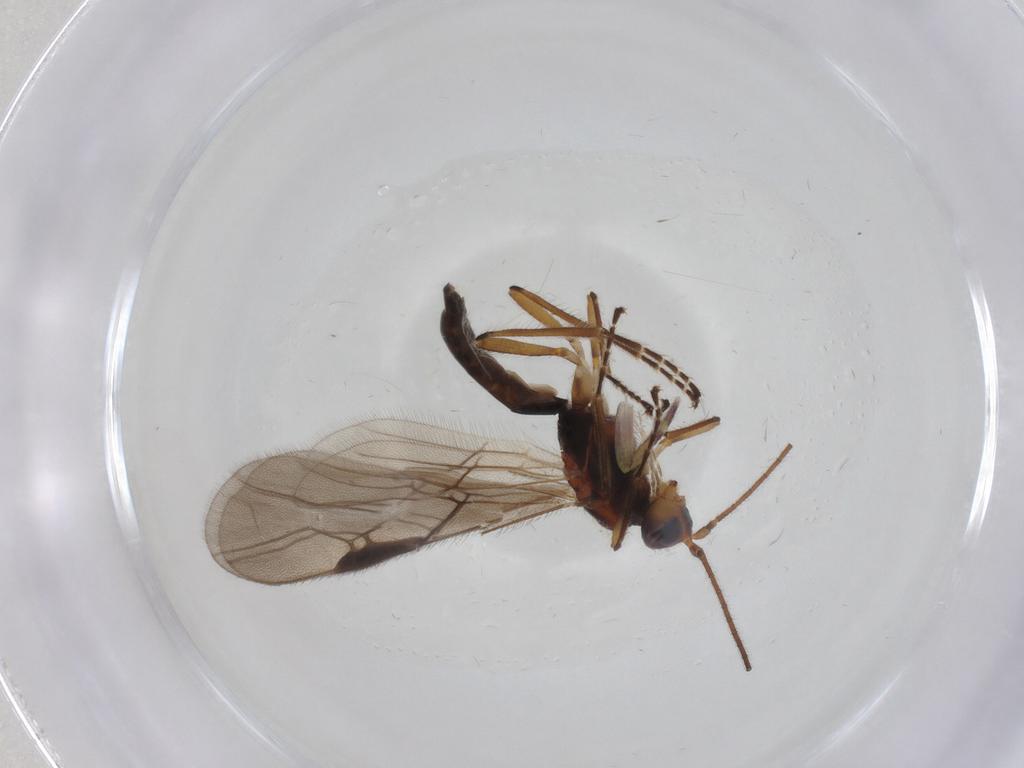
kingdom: Animalia
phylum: Arthropoda
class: Insecta
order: Hymenoptera
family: Braconidae
